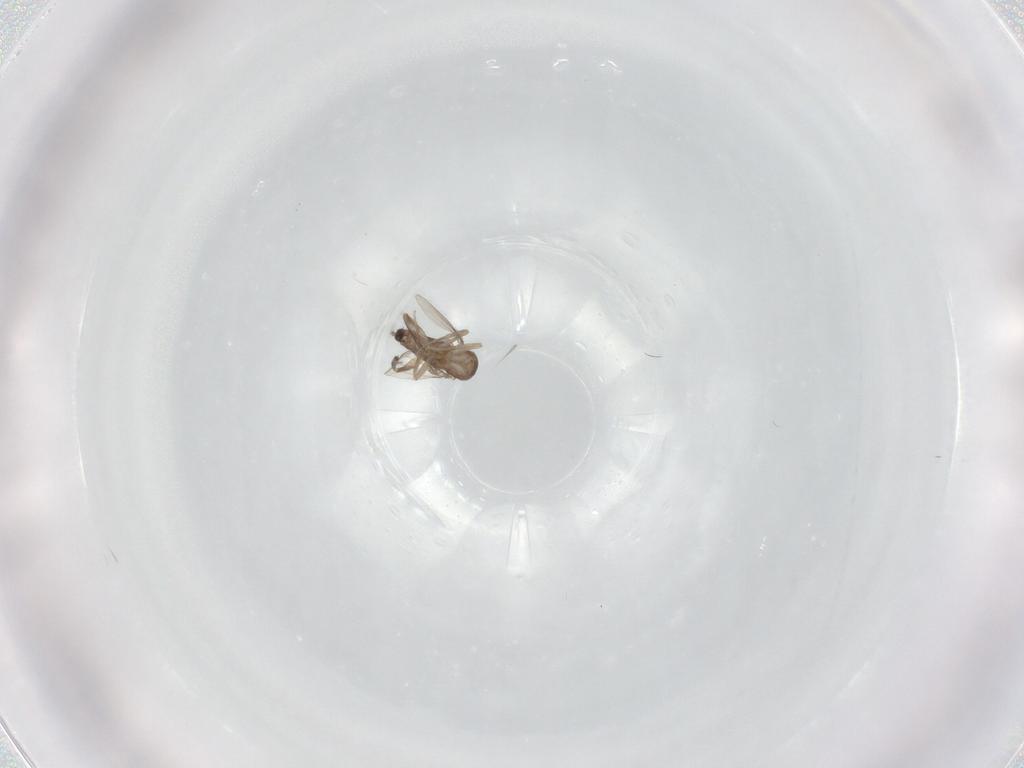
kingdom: Animalia
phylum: Arthropoda
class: Insecta
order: Diptera
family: Phoridae
